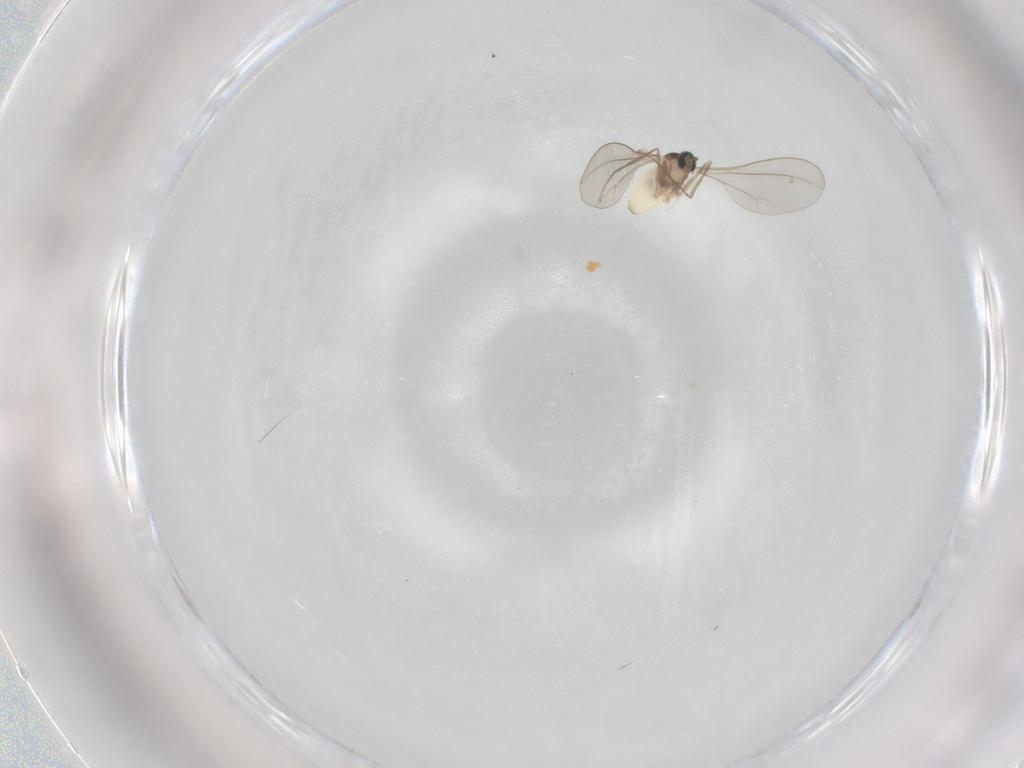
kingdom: Animalia
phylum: Arthropoda
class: Insecta
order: Diptera
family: Cecidomyiidae
